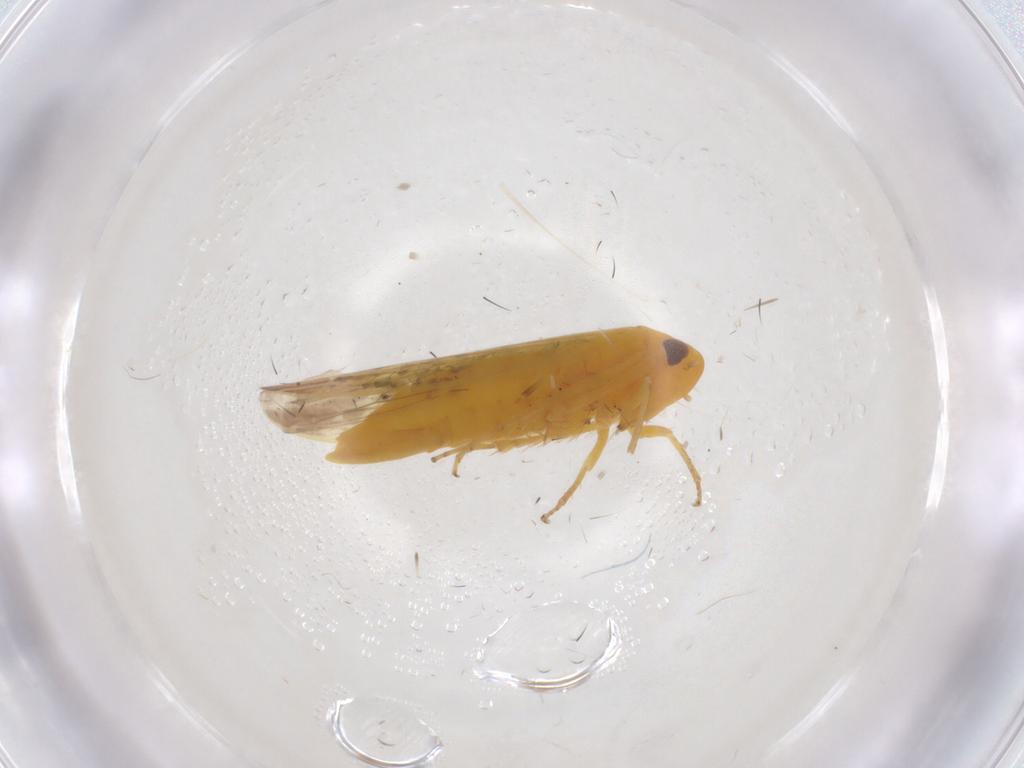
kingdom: Animalia
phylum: Arthropoda
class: Insecta
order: Hemiptera
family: Cicadellidae
